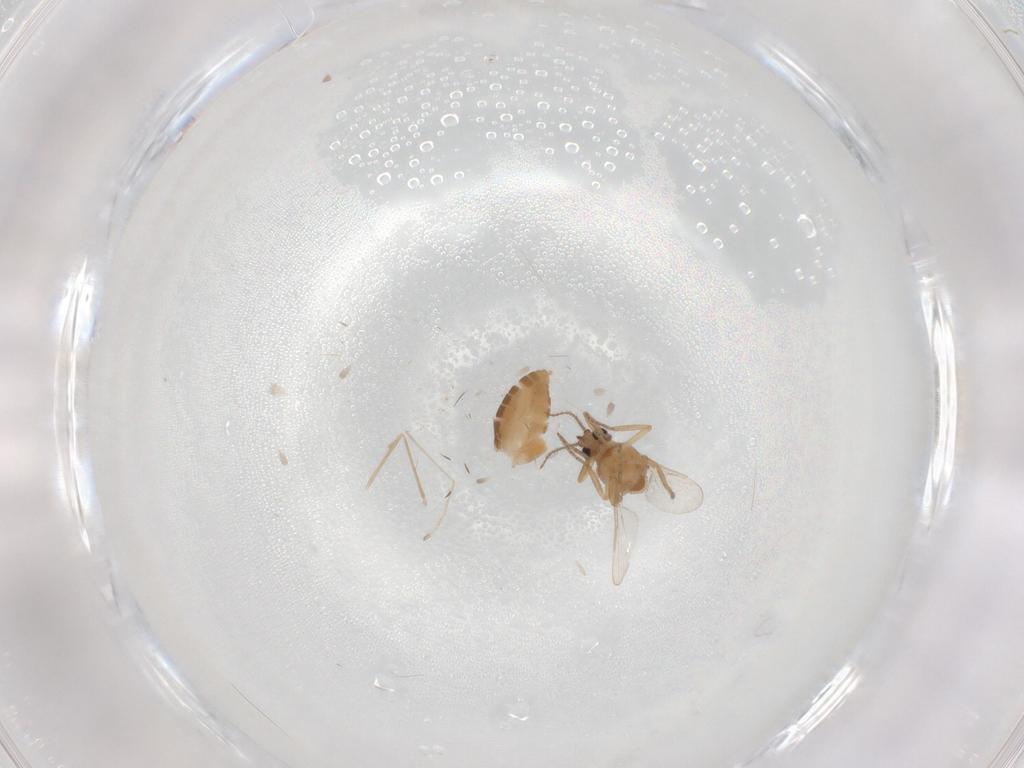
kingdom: Animalia
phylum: Arthropoda
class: Insecta
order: Diptera
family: Ceratopogonidae
